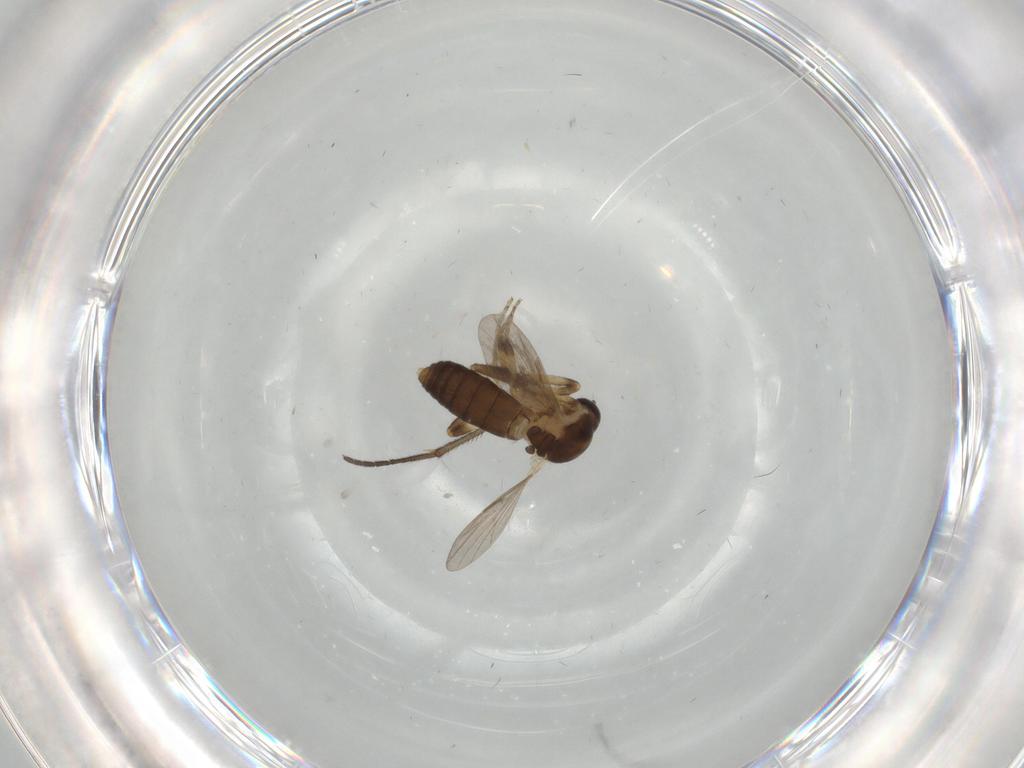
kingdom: Animalia
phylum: Arthropoda
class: Insecta
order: Diptera
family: Ceratopogonidae
